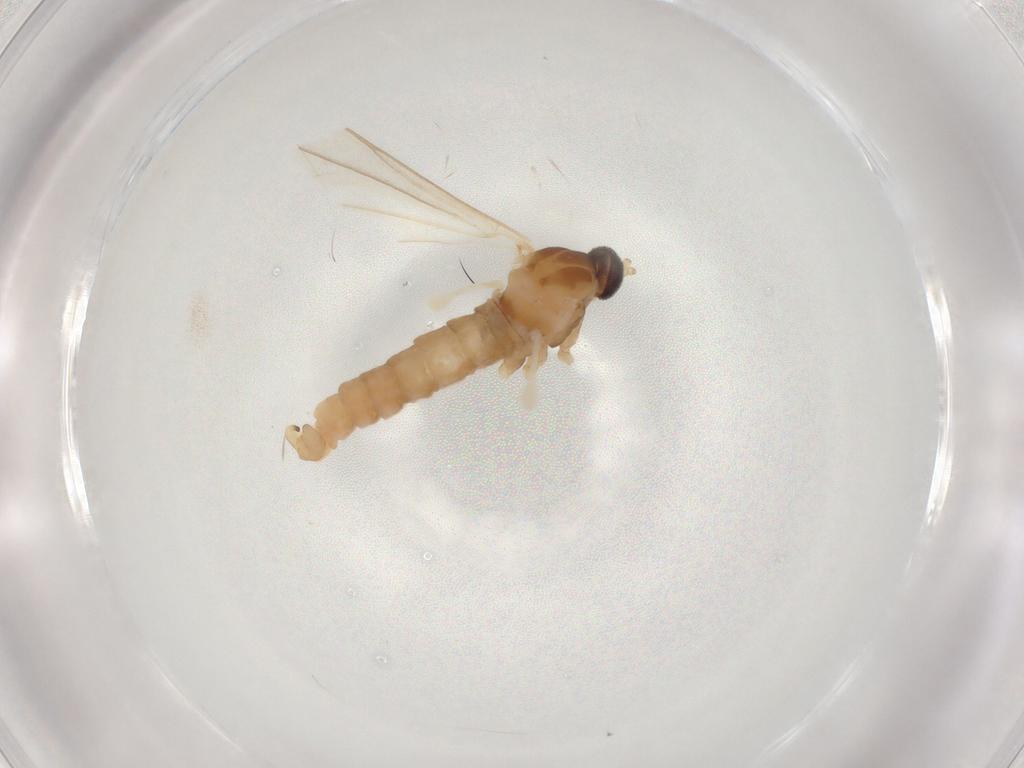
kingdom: Animalia
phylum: Arthropoda
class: Insecta
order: Diptera
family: Cecidomyiidae
